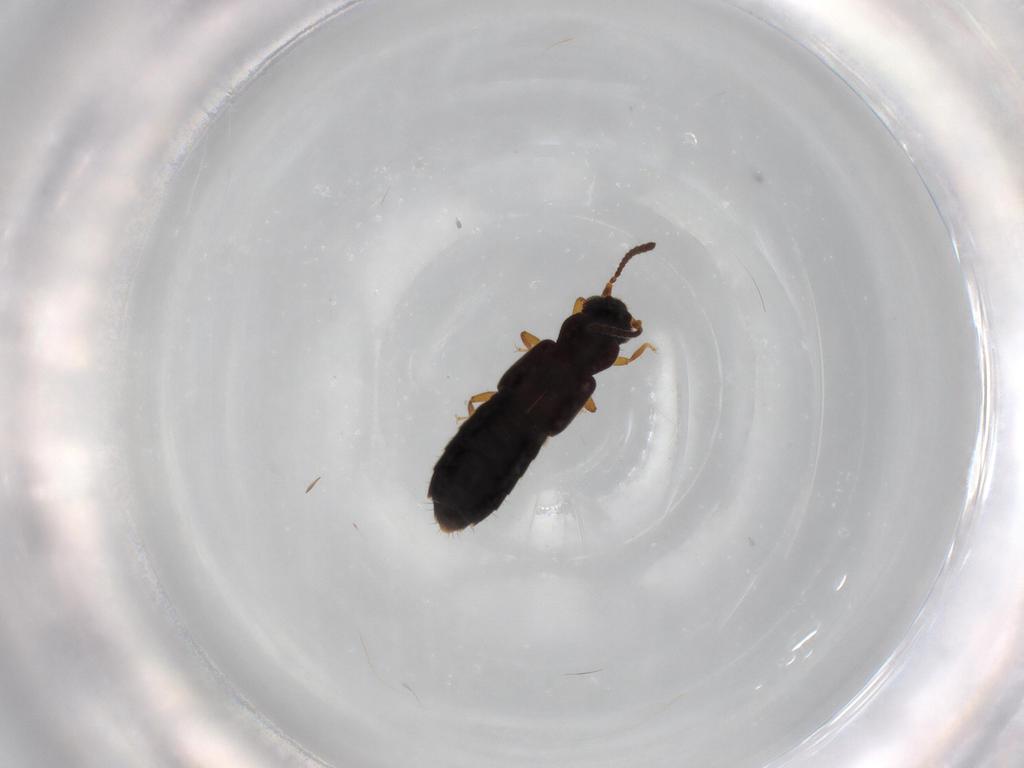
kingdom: Animalia
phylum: Arthropoda
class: Insecta
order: Coleoptera
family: Staphylinidae
